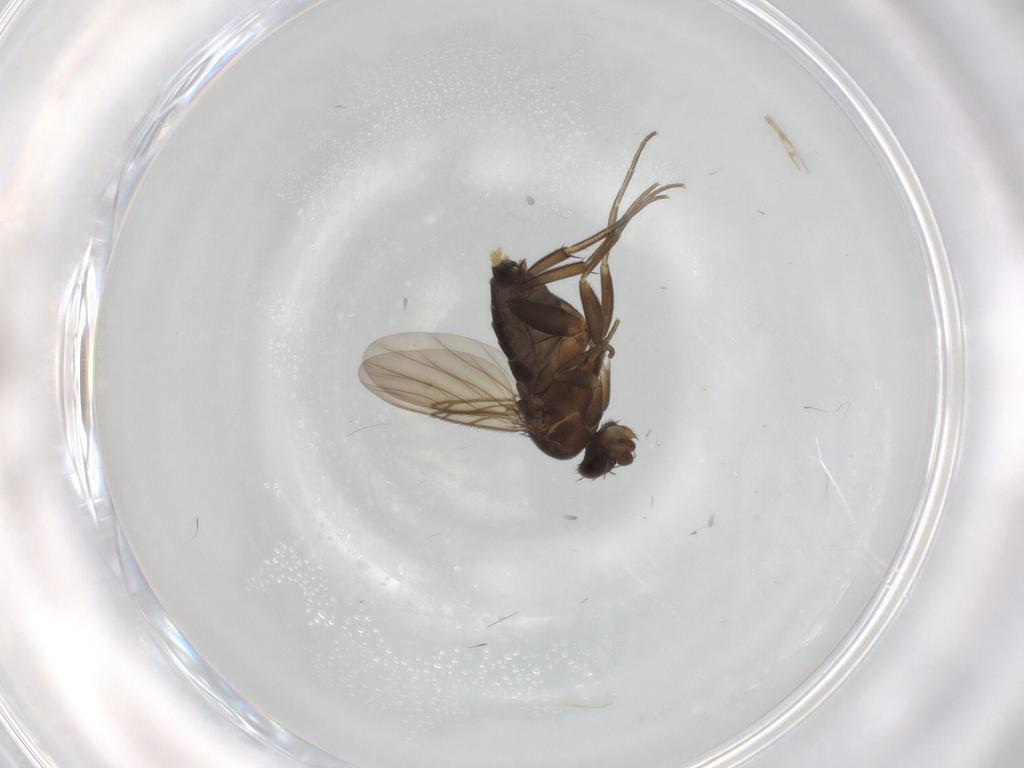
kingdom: Animalia
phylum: Arthropoda
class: Insecta
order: Diptera
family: Phoridae
